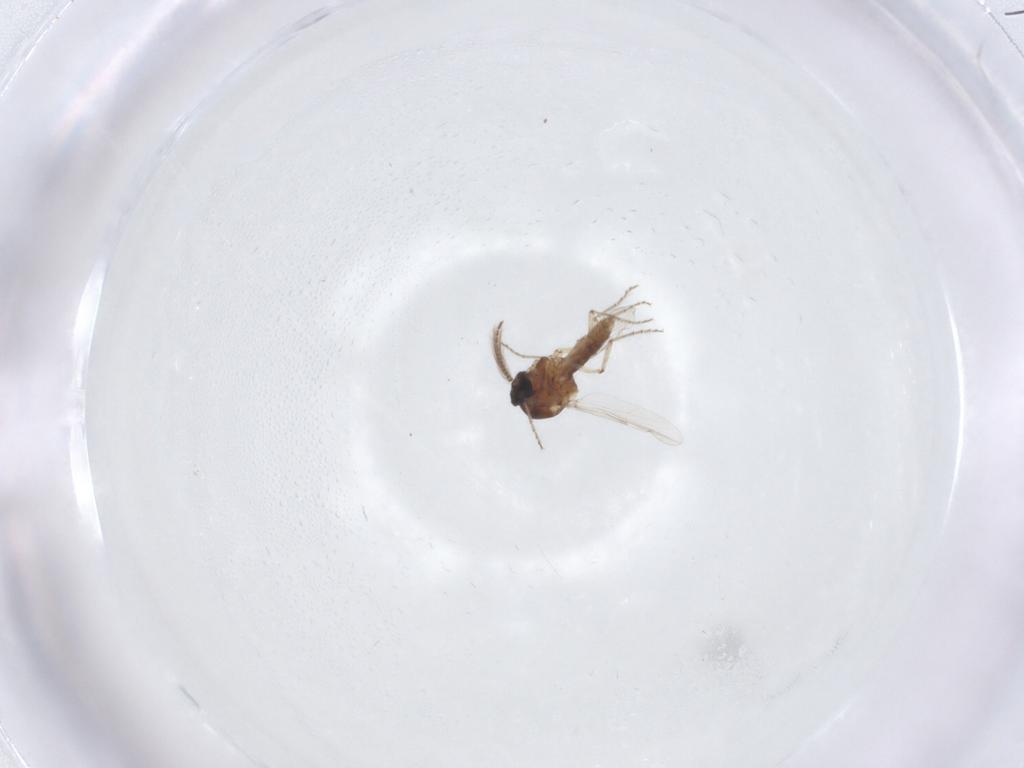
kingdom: Animalia
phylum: Arthropoda
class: Insecta
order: Diptera
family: Ceratopogonidae
